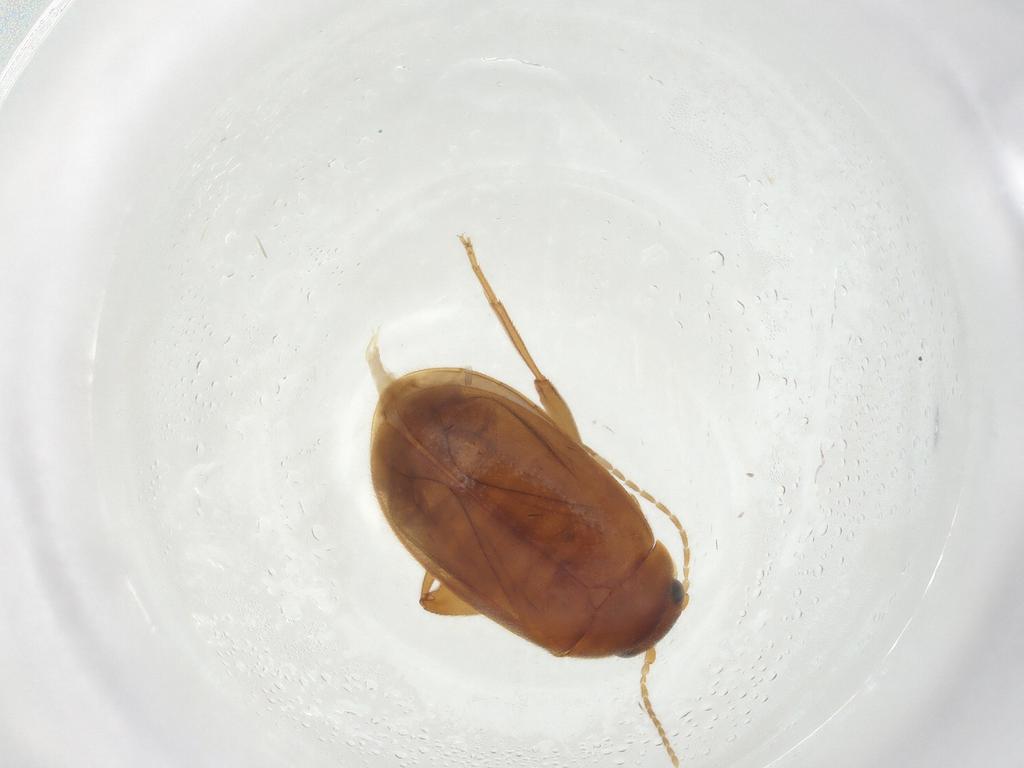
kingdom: Animalia
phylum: Arthropoda
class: Insecta
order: Coleoptera
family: Scirtidae
